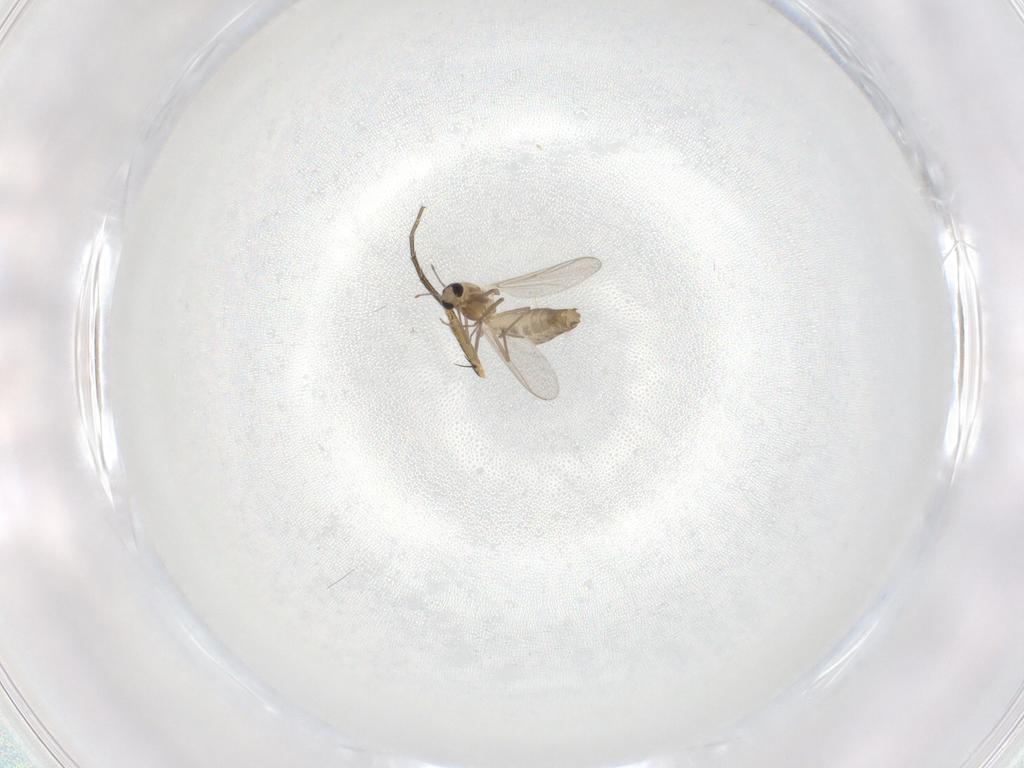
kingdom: Animalia
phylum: Arthropoda
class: Insecta
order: Diptera
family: Chironomidae
